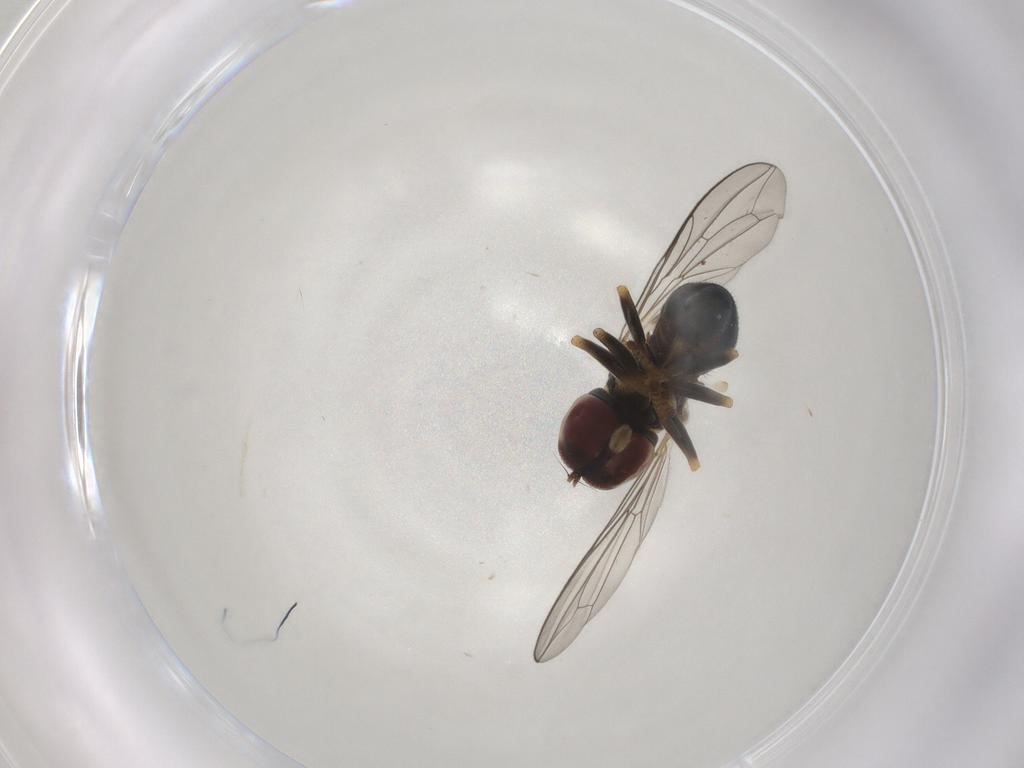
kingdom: Animalia
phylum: Arthropoda
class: Insecta
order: Diptera
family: Pipunculidae
